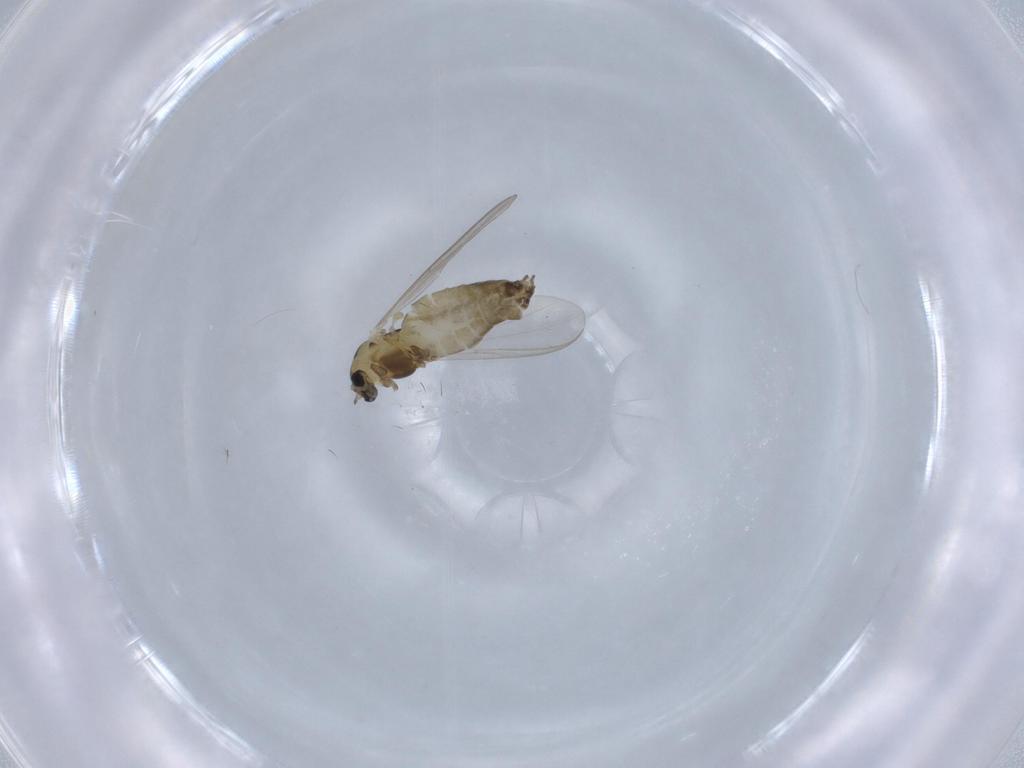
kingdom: Animalia
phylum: Arthropoda
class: Insecta
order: Diptera
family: Chironomidae
